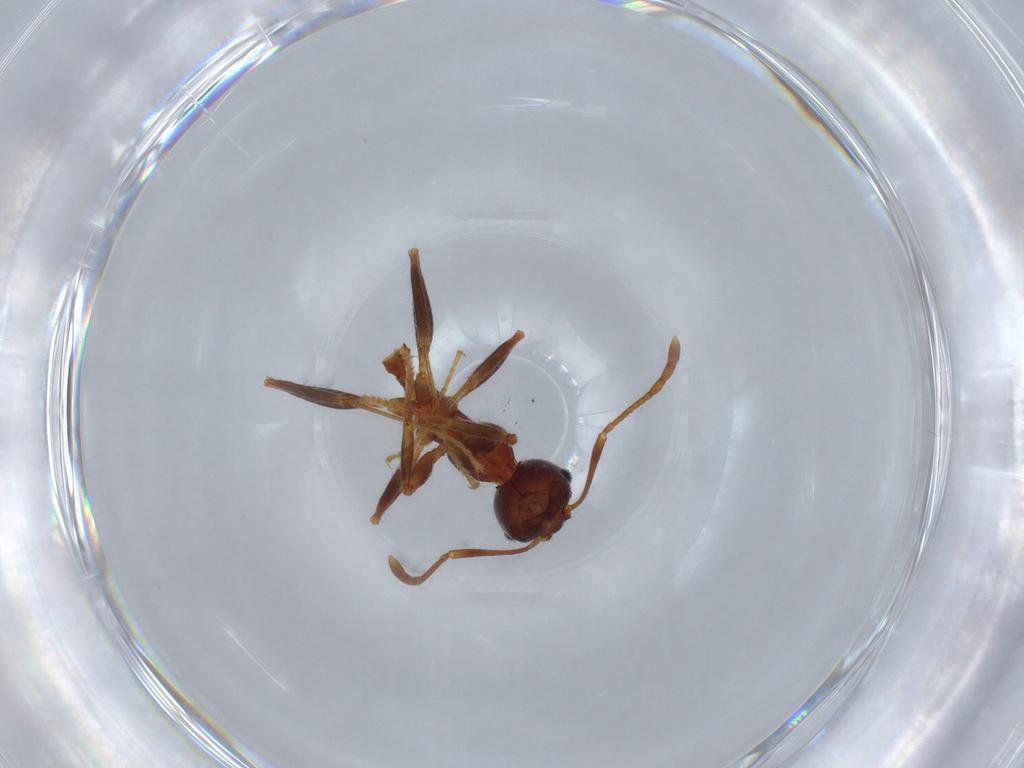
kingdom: Animalia
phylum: Arthropoda
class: Insecta
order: Hymenoptera
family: Formicidae
